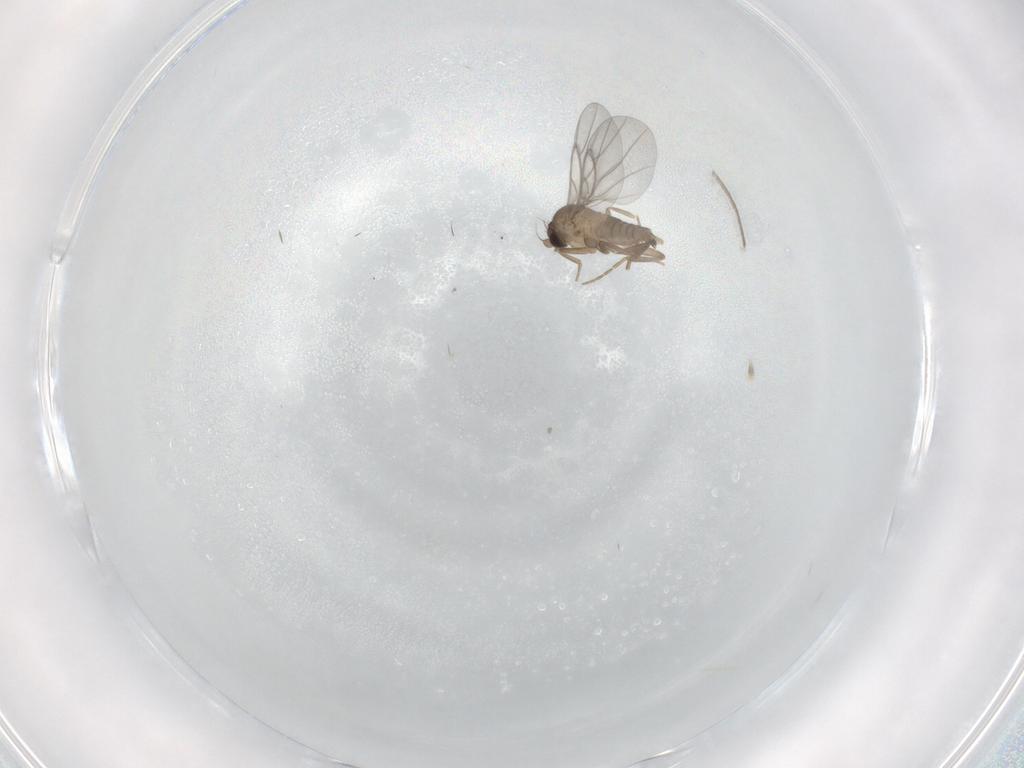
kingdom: Animalia
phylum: Arthropoda
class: Insecta
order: Diptera
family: Chironomidae
